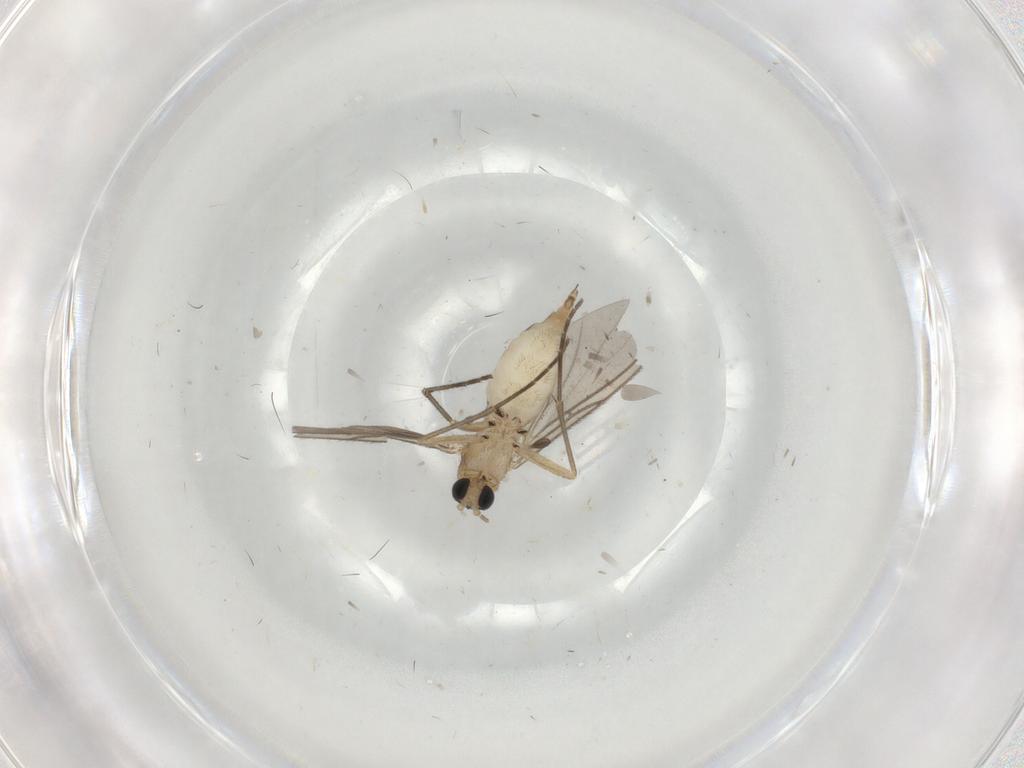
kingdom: Animalia
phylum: Arthropoda
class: Insecta
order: Diptera
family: Sciaridae
